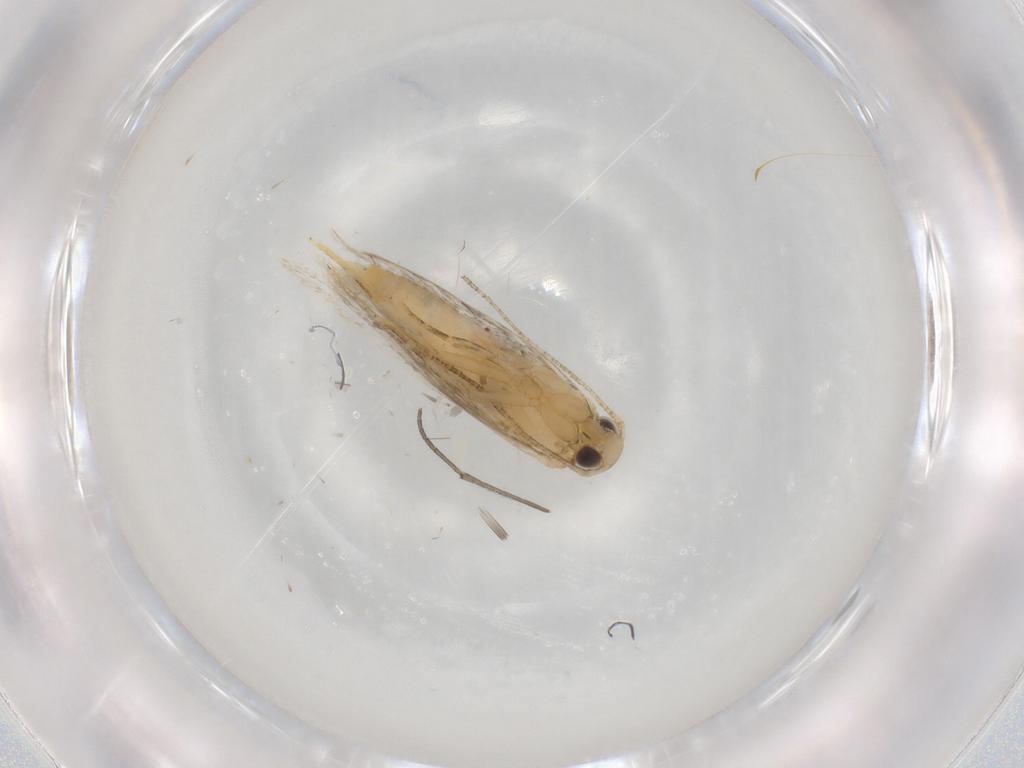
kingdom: Animalia
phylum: Arthropoda
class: Insecta
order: Lepidoptera
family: Autostichidae
